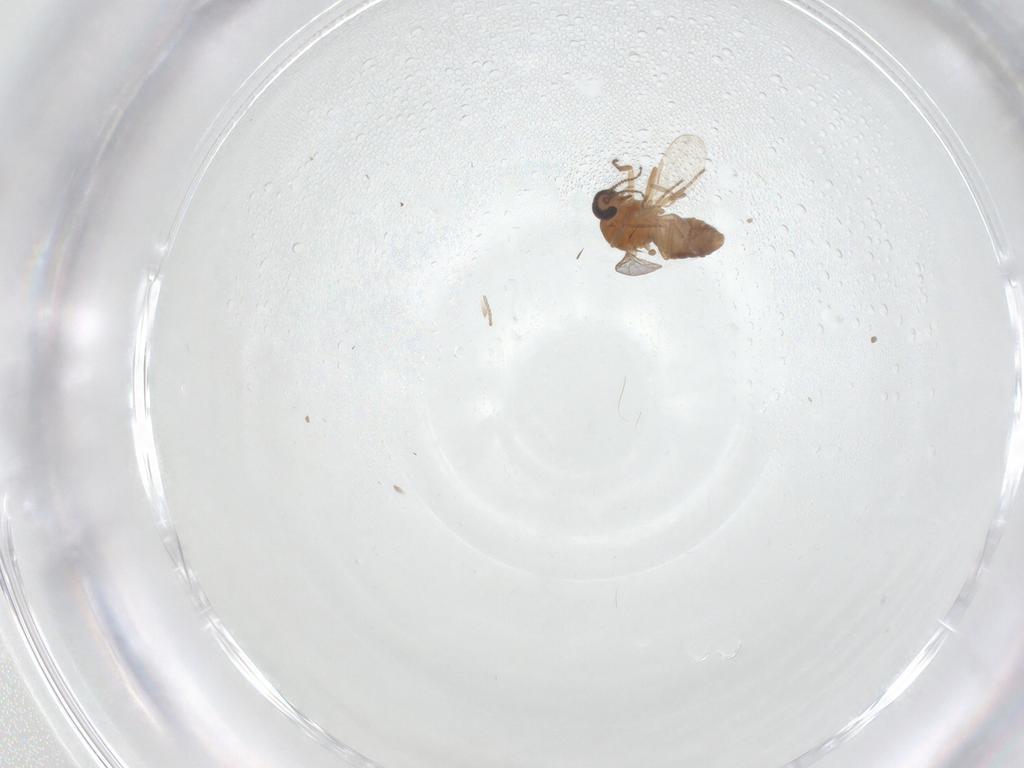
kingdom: Animalia
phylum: Arthropoda
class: Insecta
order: Diptera
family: Ceratopogonidae
